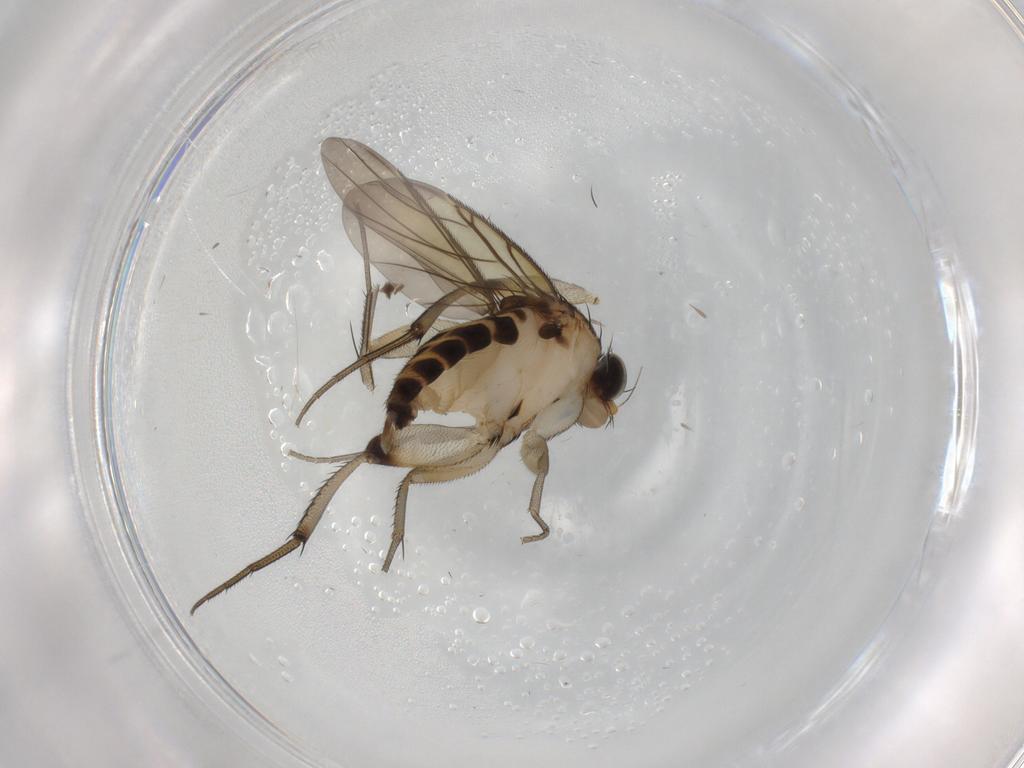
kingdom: Animalia
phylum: Arthropoda
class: Insecta
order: Diptera
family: Phoridae
